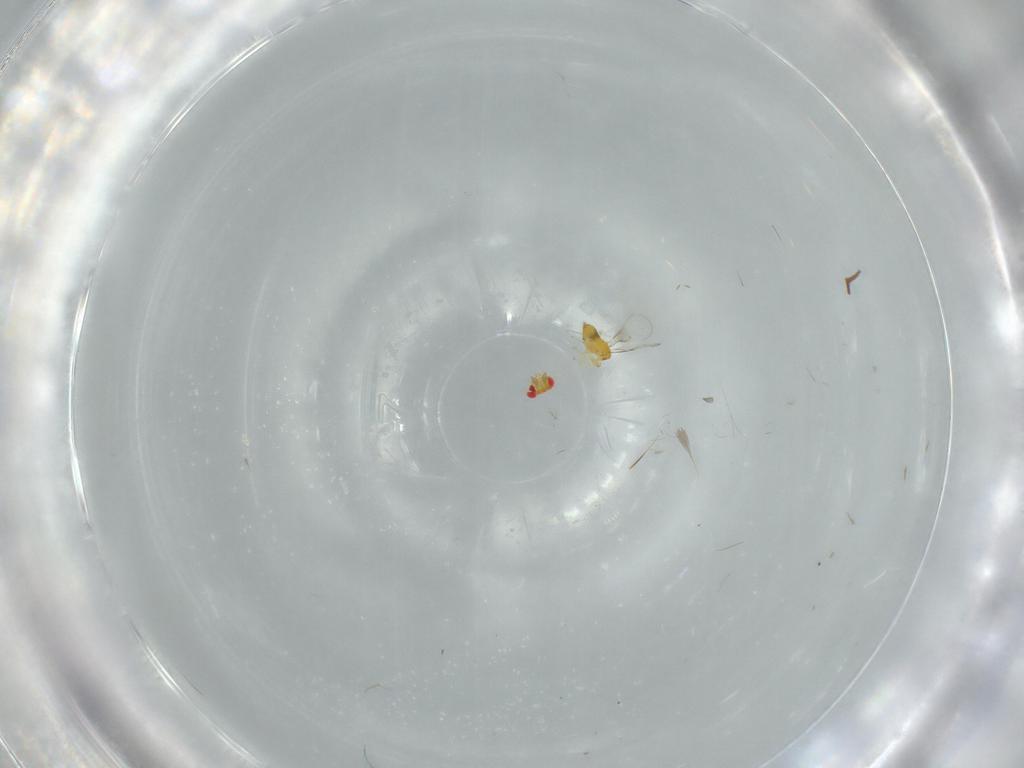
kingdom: Animalia
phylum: Arthropoda
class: Insecta
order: Hymenoptera
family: Trichogrammatidae
